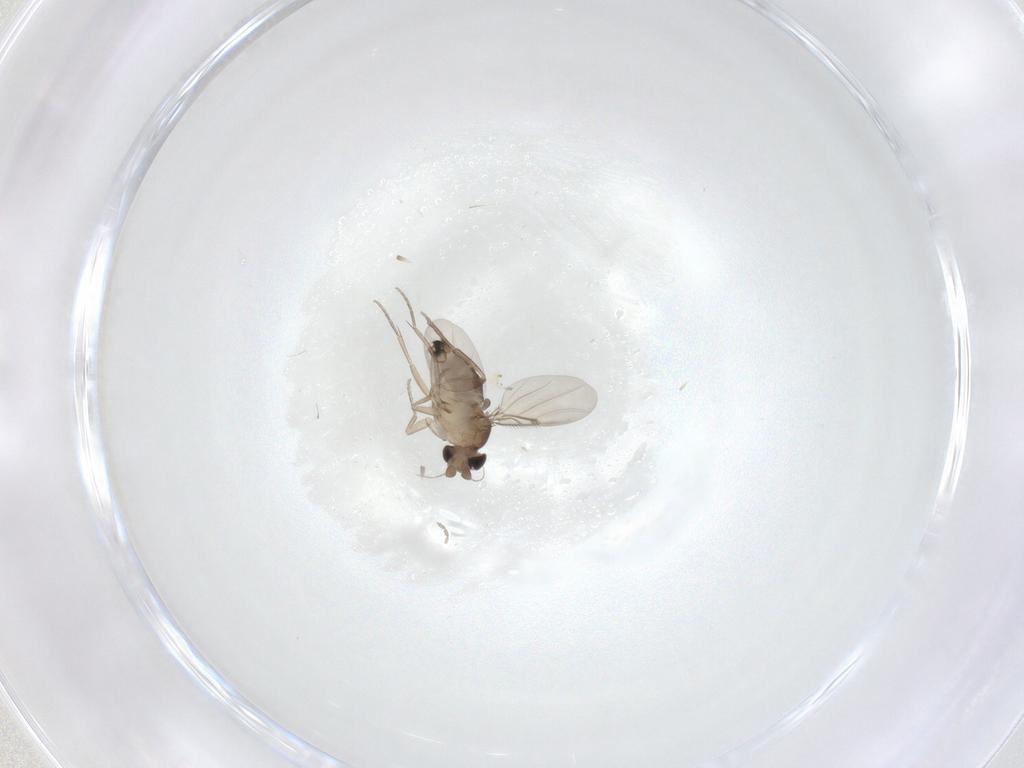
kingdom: Animalia
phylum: Arthropoda
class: Insecta
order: Diptera
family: Cecidomyiidae
